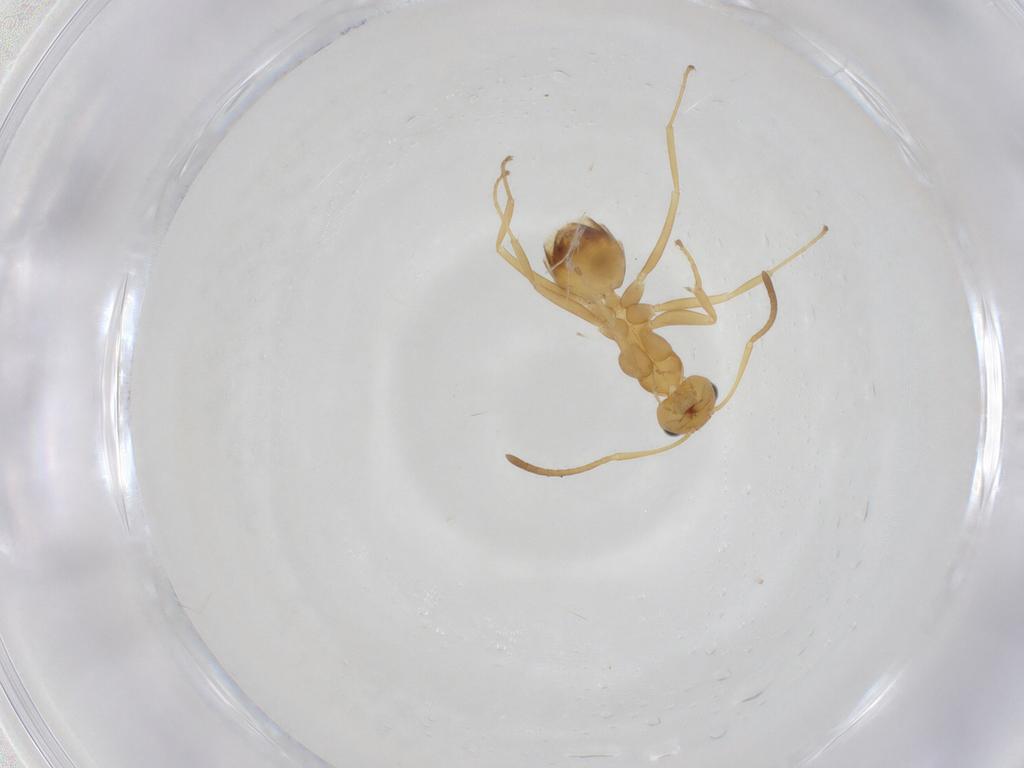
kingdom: Animalia
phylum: Arthropoda
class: Insecta
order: Hymenoptera
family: Formicidae
